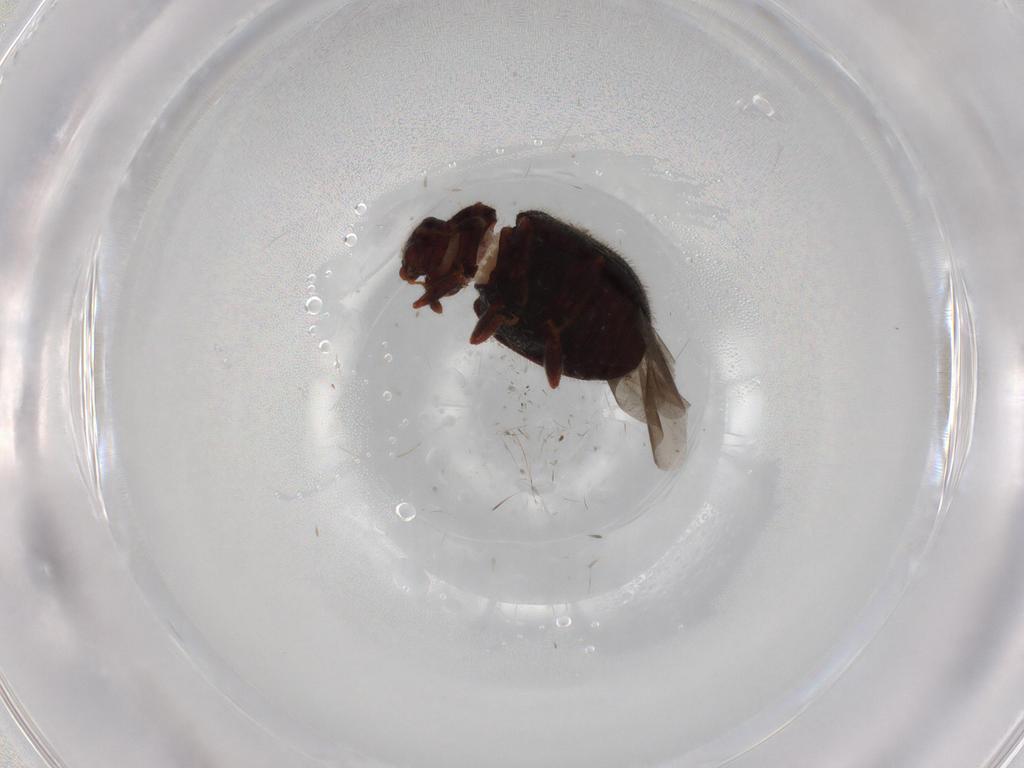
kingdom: Animalia
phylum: Arthropoda
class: Insecta
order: Coleoptera
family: Sphindidae
